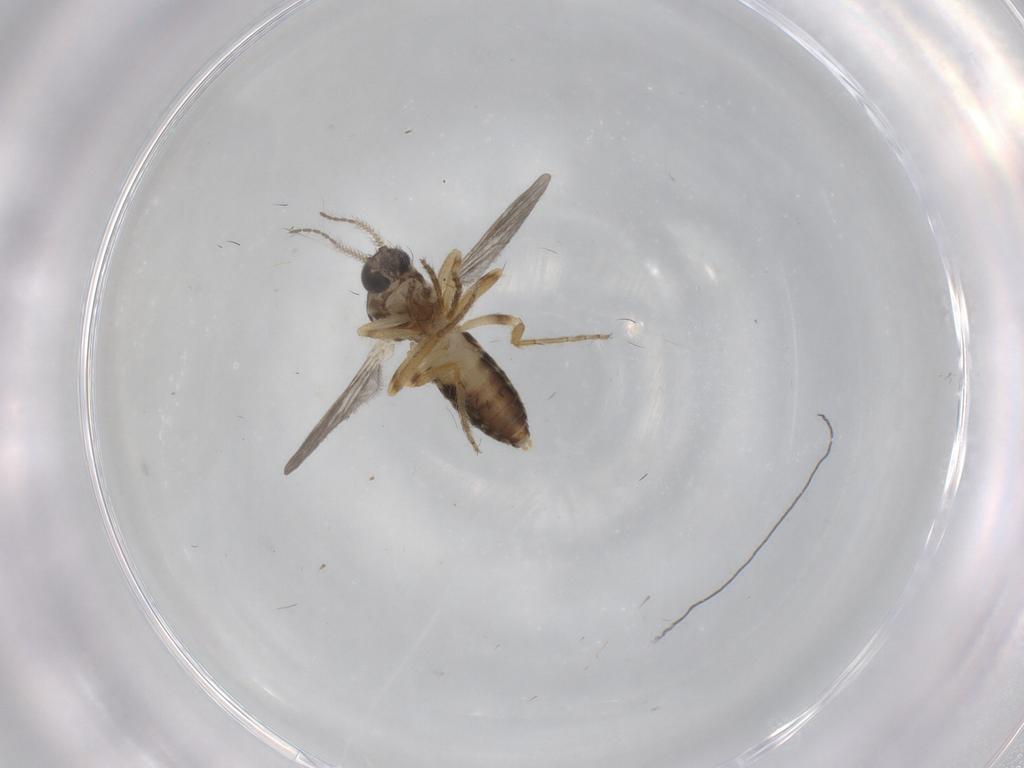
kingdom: Animalia
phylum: Arthropoda
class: Insecta
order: Diptera
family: Ceratopogonidae
